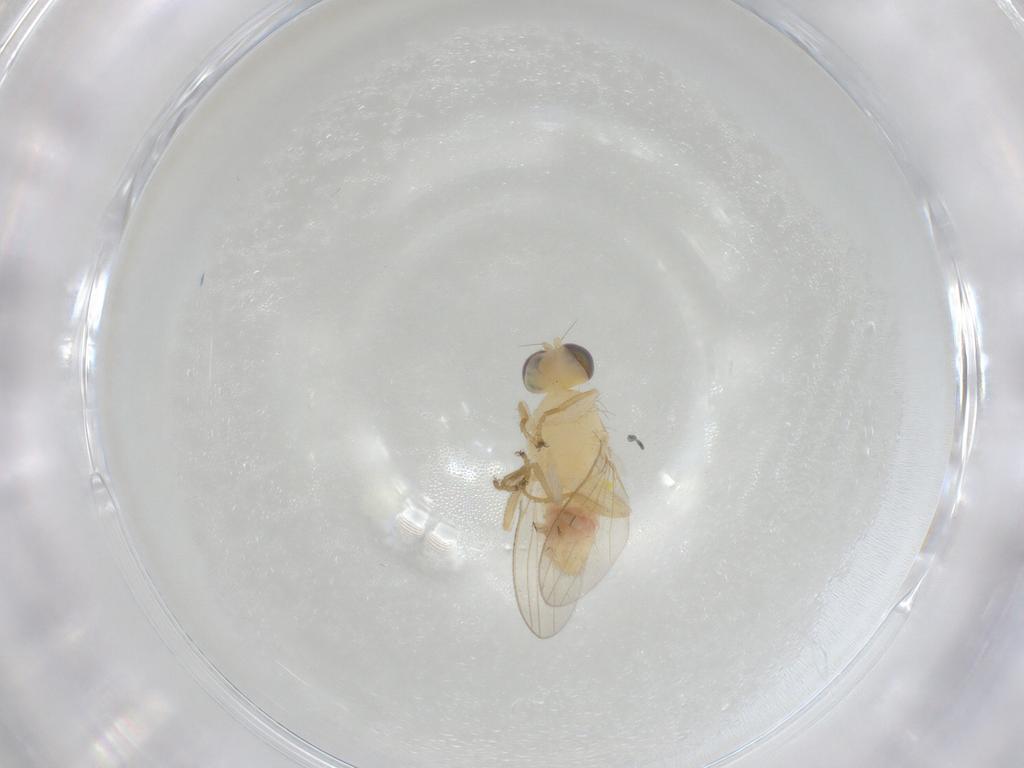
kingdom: Animalia
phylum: Arthropoda
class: Insecta
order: Diptera
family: Chyromyidae
